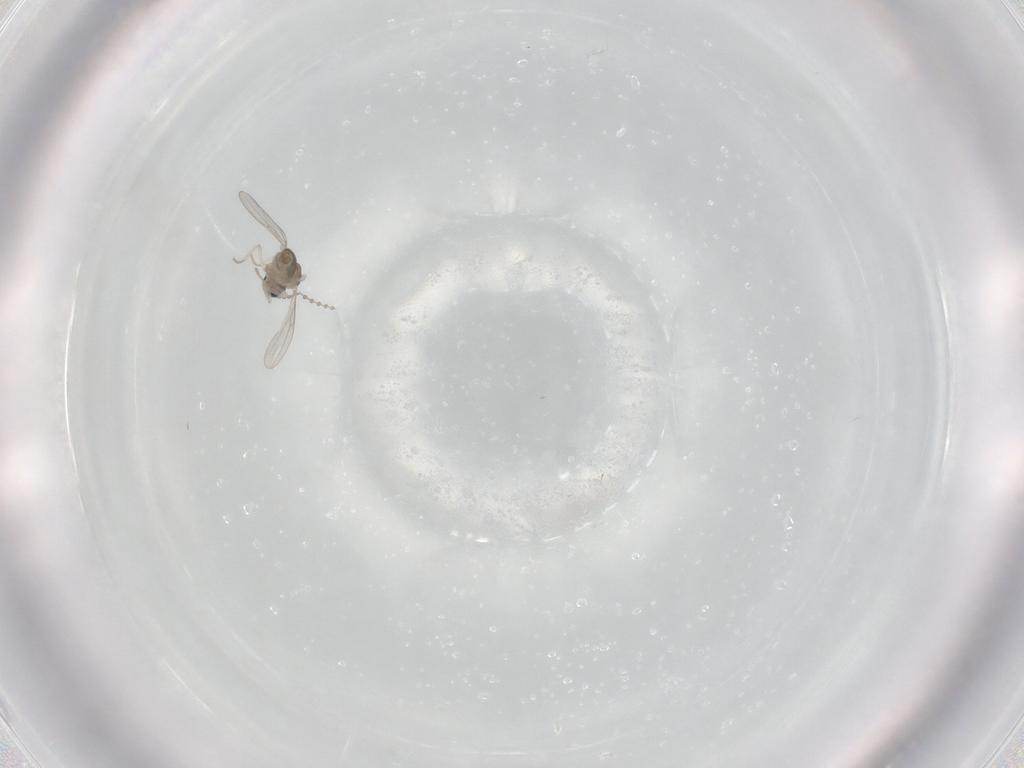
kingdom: Animalia
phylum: Arthropoda
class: Insecta
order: Diptera
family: Cecidomyiidae
